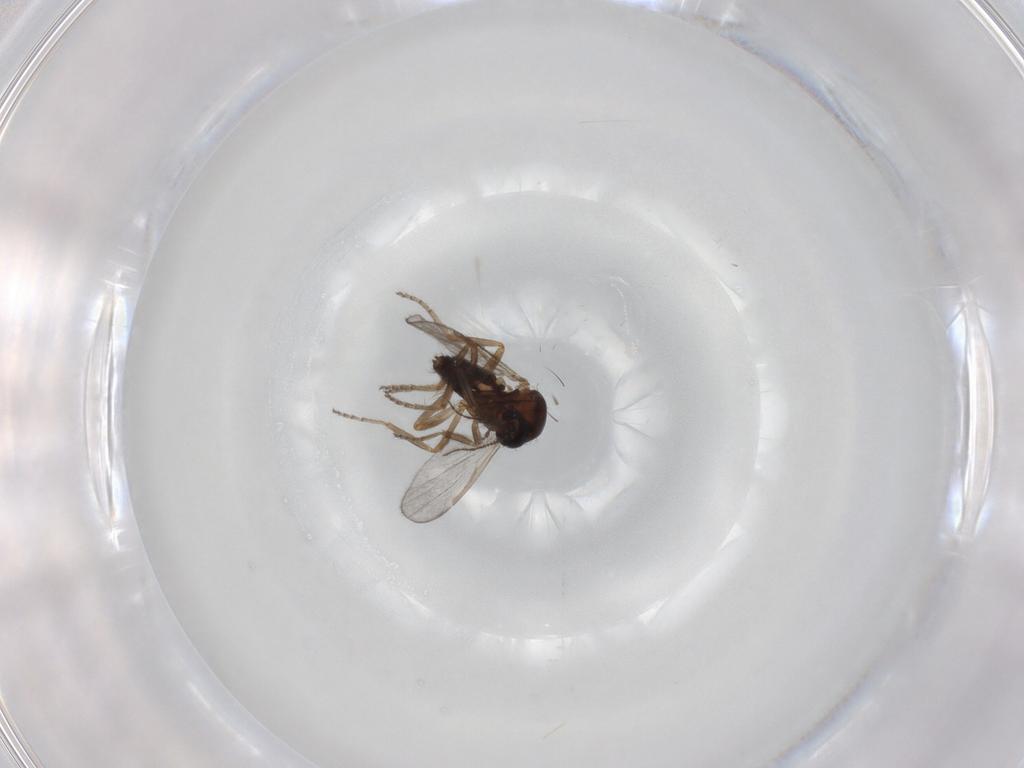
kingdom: Animalia
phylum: Arthropoda
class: Insecta
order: Diptera
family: Ceratopogonidae
